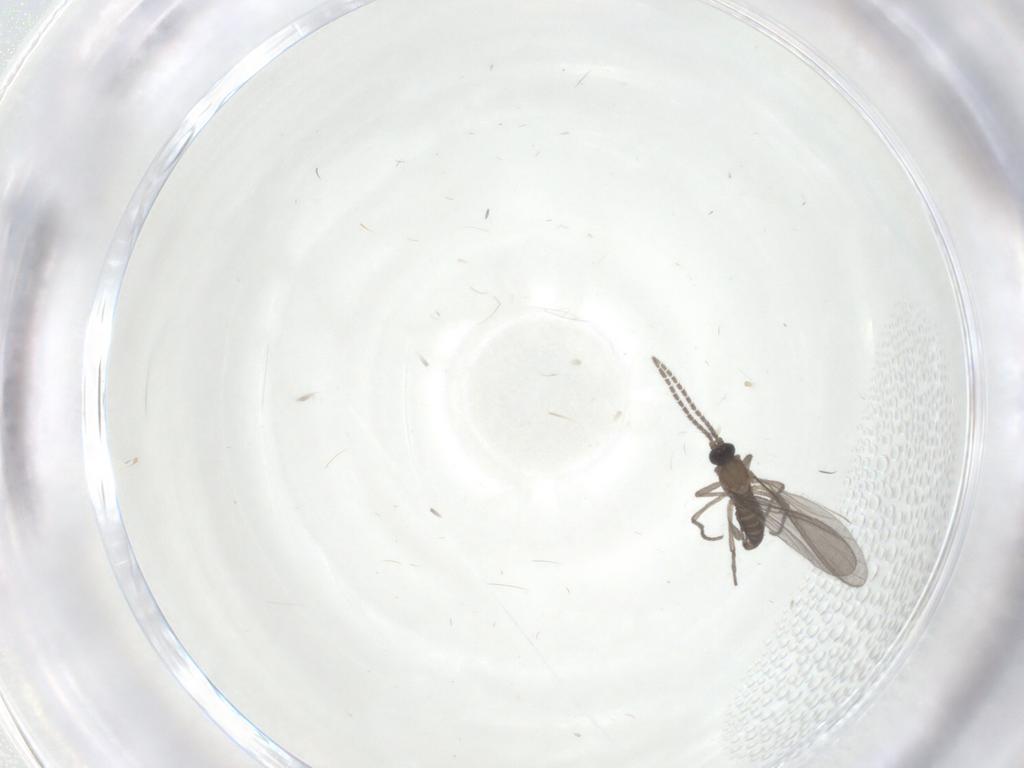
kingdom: Animalia
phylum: Arthropoda
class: Insecta
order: Diptera
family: Sciaridae
